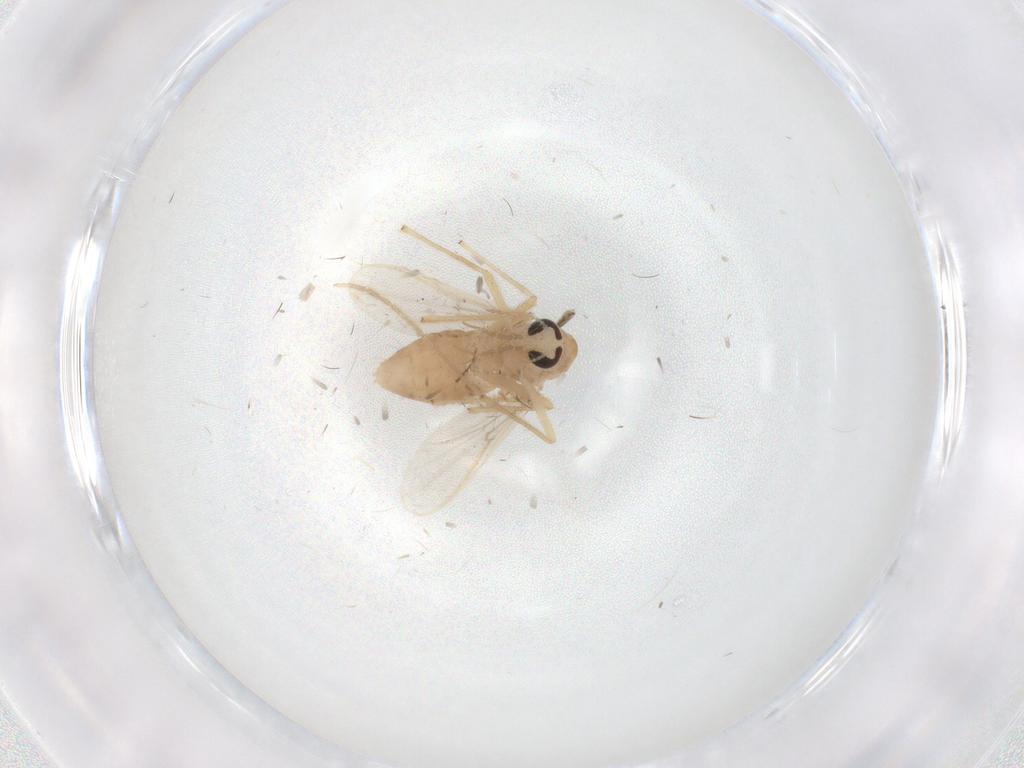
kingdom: Animalia
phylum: Arthropoda
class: Insecta
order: Diptera
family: Chironomidae
